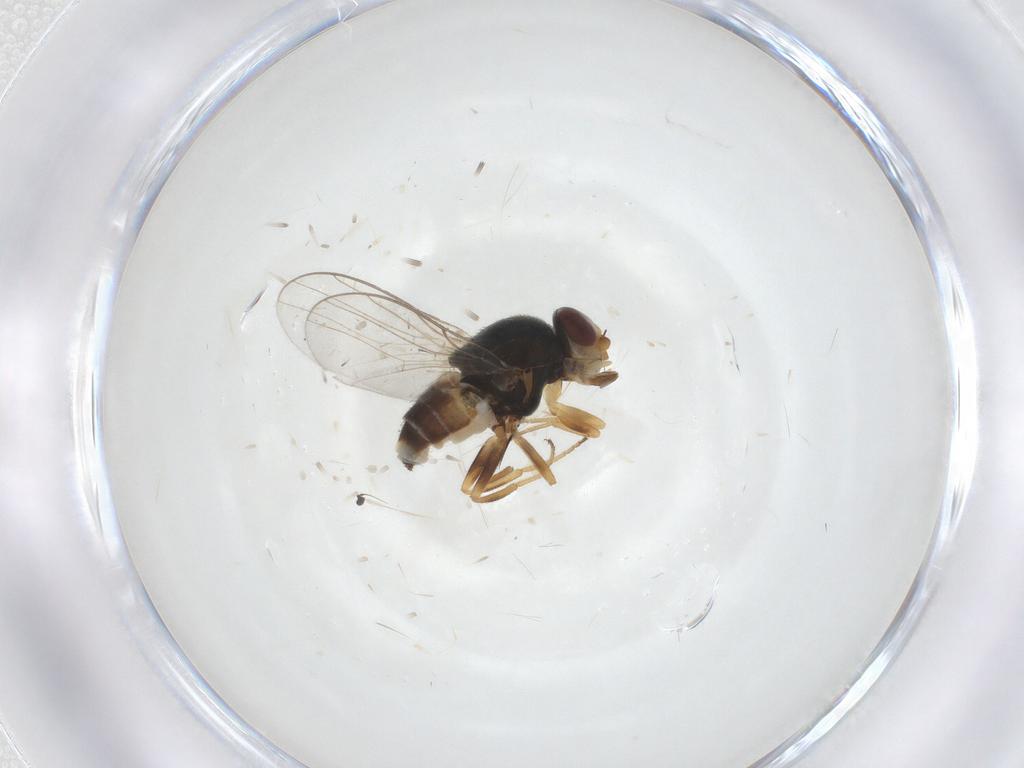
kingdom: Animalia
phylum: Arthropoda
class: Insecta
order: Diptera
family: Chloropidae
